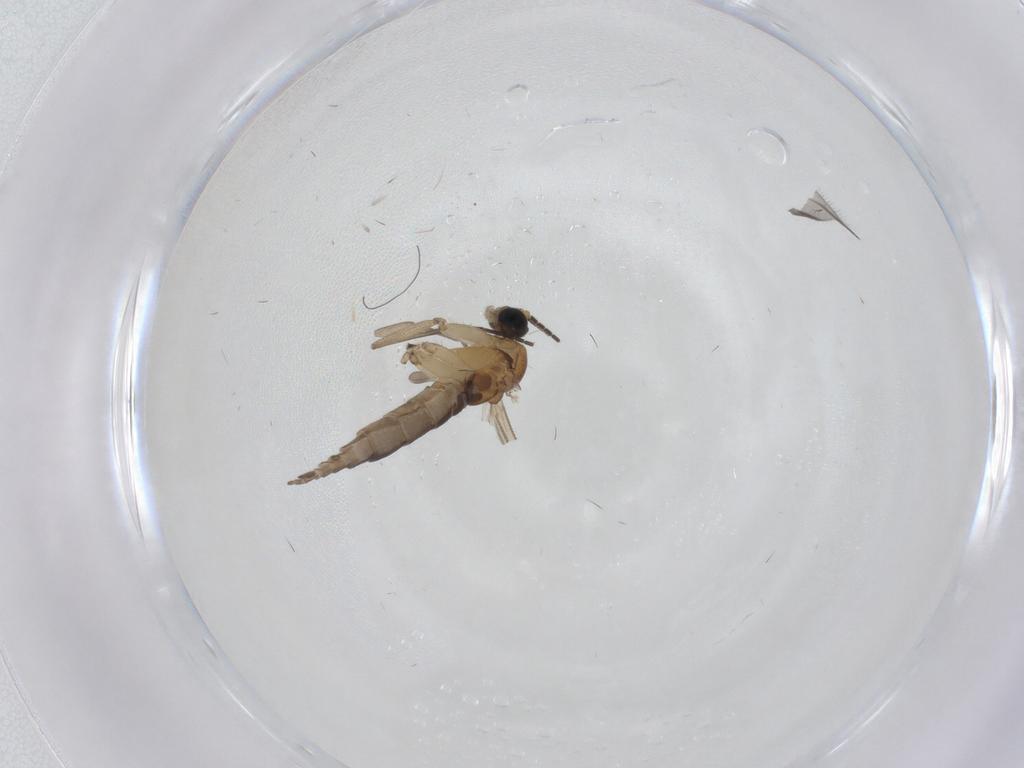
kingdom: Animalia
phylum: Arthropoda
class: Insecta
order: Diptera
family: Sciaridae
